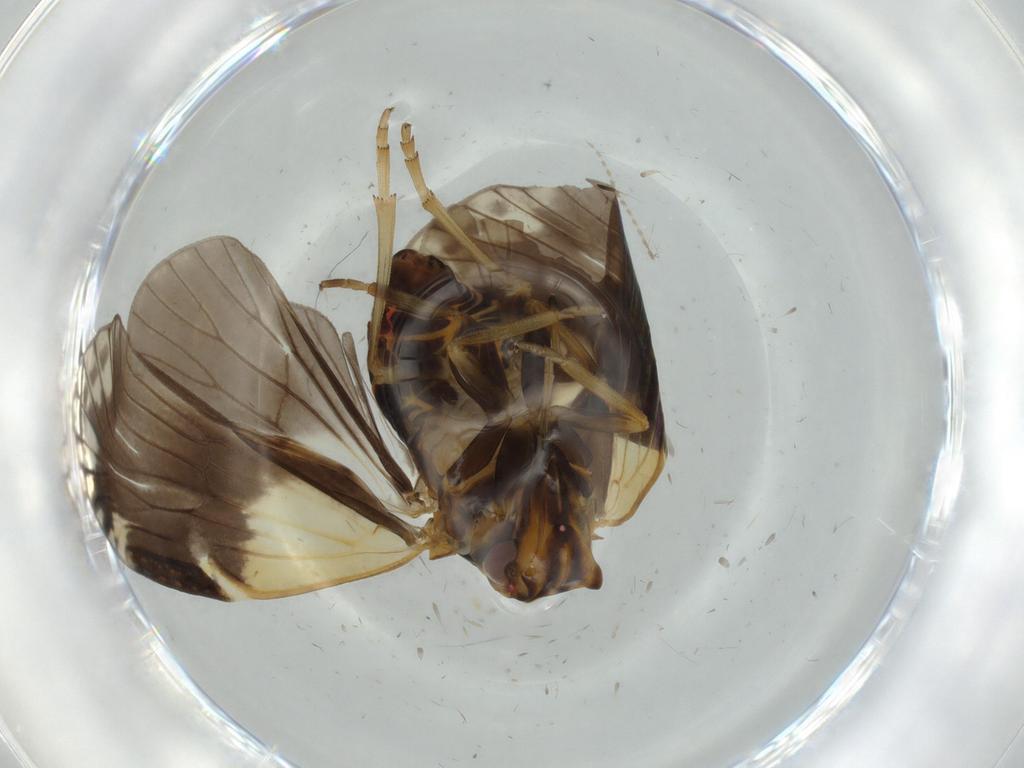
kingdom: Animalia
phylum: Arthropoda
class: Insecta
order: Hemiptera
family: Cixiidae
